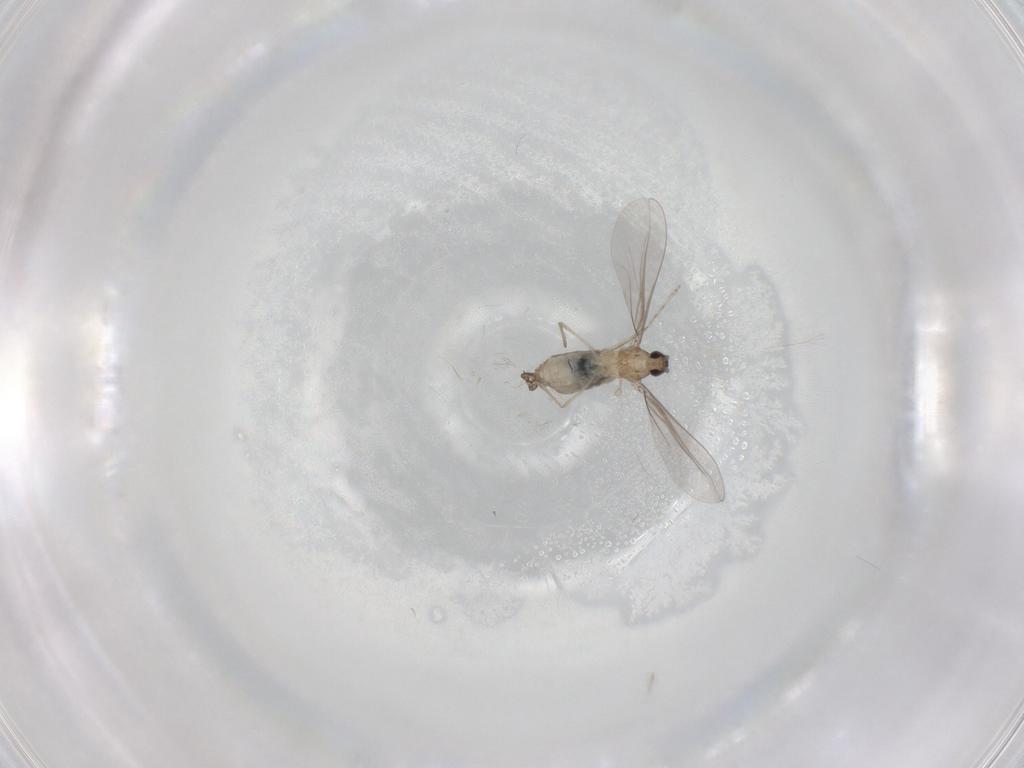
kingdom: Animalia
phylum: Arthropoda
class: Insecta
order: Diptera
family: Cecidomyiidae
